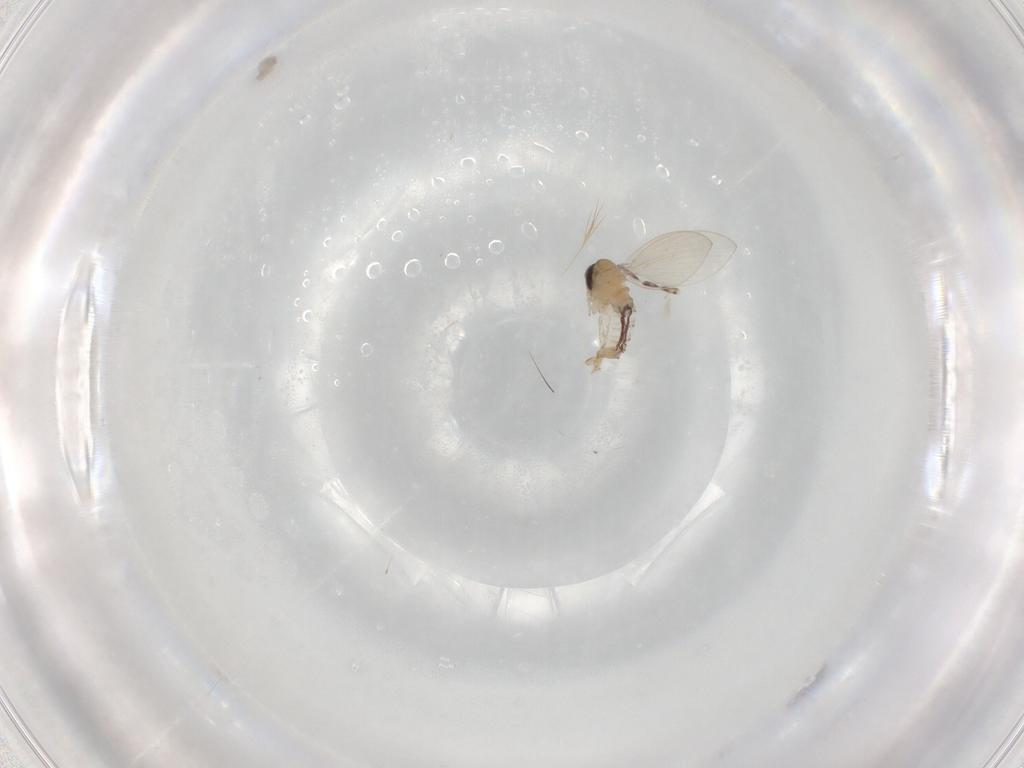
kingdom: Animalia
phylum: Arthropoda
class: Insecta
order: Diptera
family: Psychodidae
